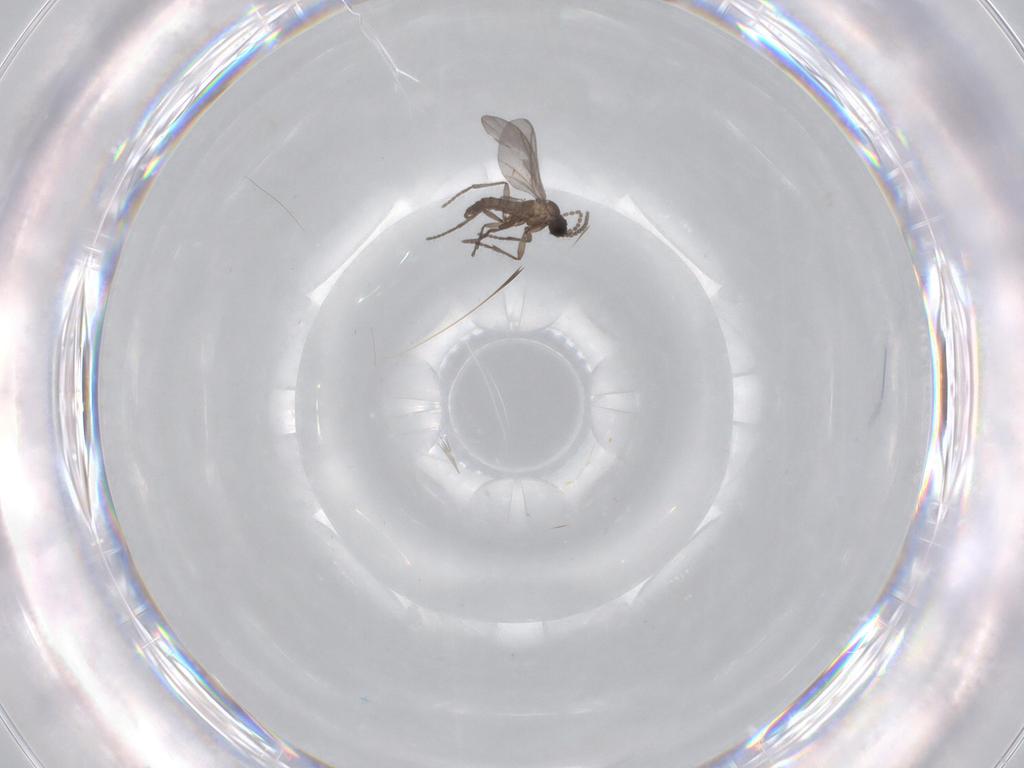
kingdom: Animalia
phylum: Arthropoda
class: Insecta
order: Diptera
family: Sciaridae
